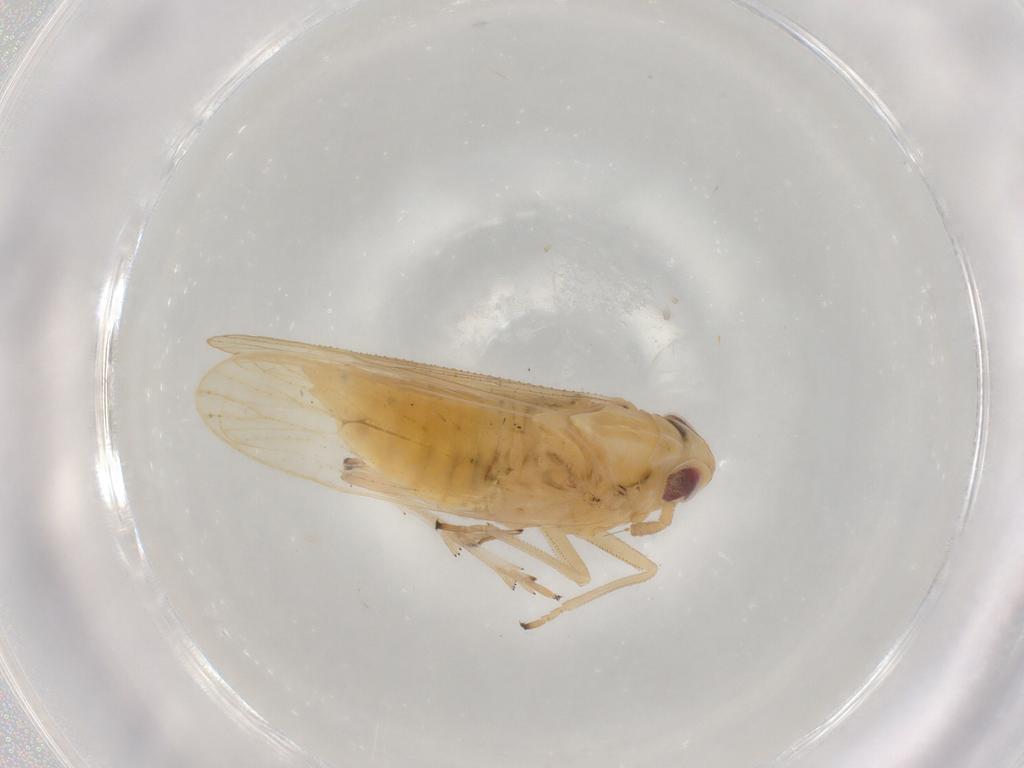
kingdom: Animalia
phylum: Arthropoda
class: Insecta
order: Hemiptera
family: Delphacidae
